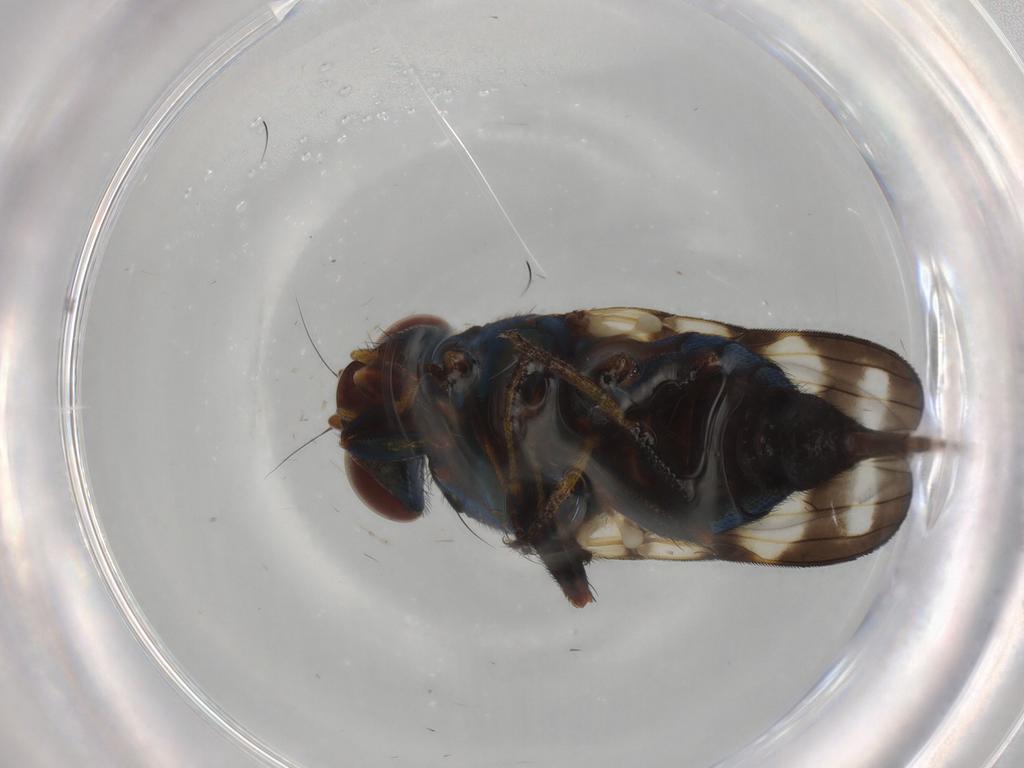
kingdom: Animalia
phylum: Arthropoda
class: Insecta
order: Diptera
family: Ulidiidae
